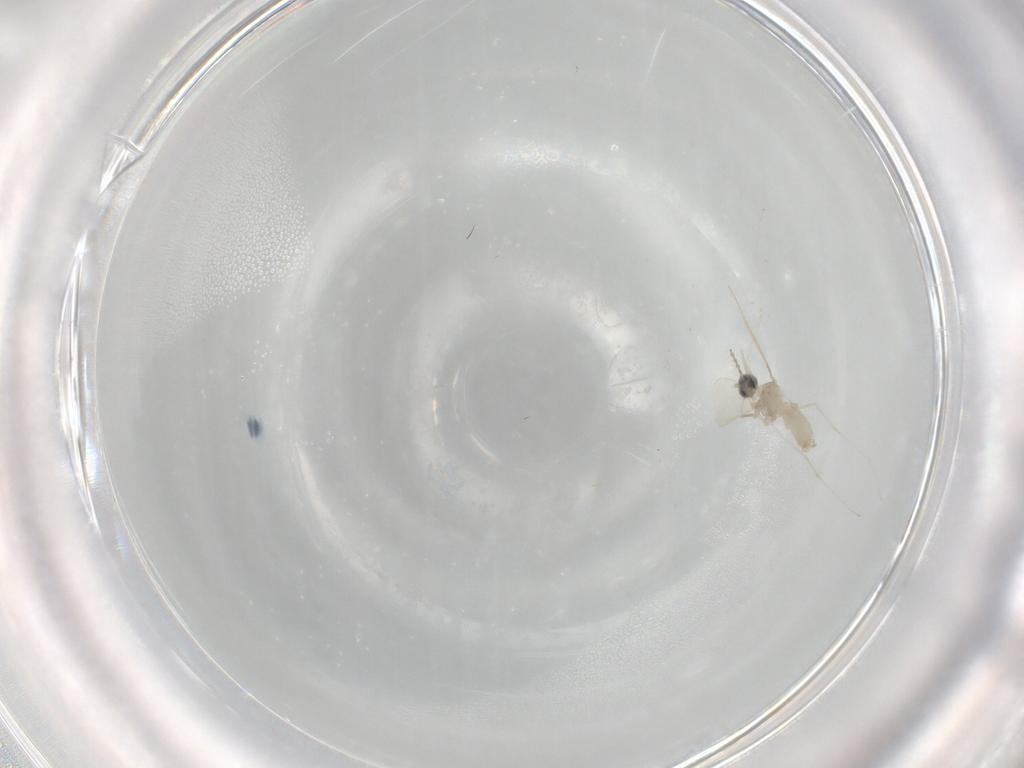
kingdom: Animalia
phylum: Arthropoda
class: Insecta
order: Diptera
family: Cecidomyiidae
